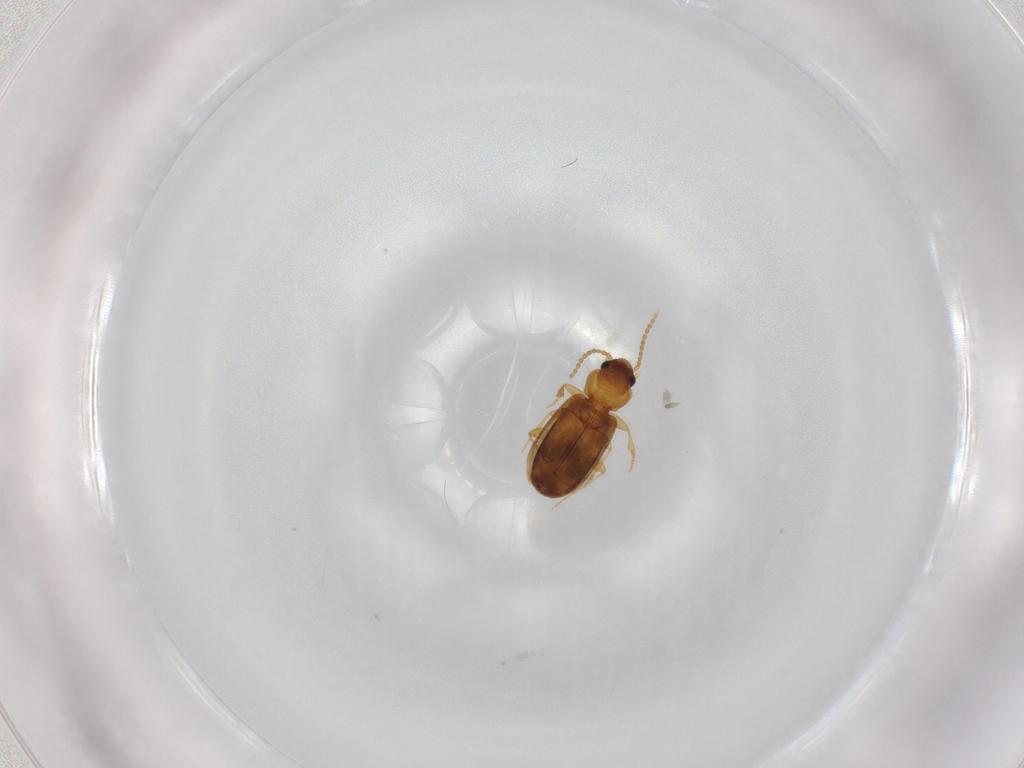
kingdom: Animalia
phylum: Arthropoda
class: Insecta
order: Coleoptera
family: Carabidae
